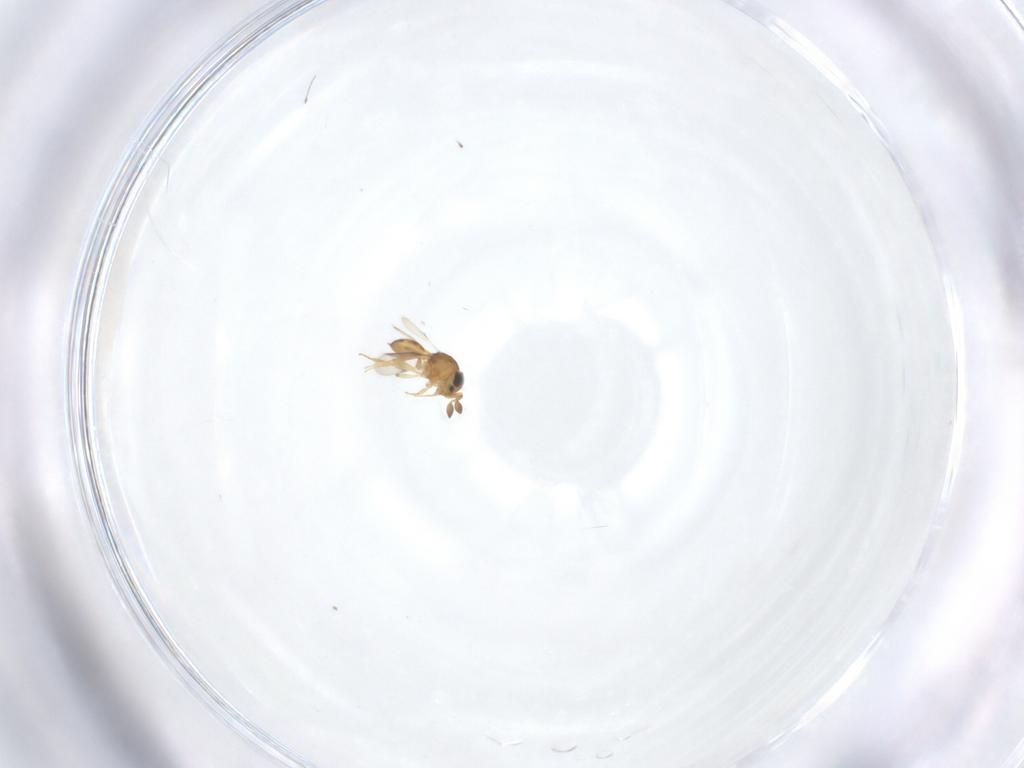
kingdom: Animalia
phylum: Arthropoda
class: Insecta
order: Hymenoptera
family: Scelionidae
